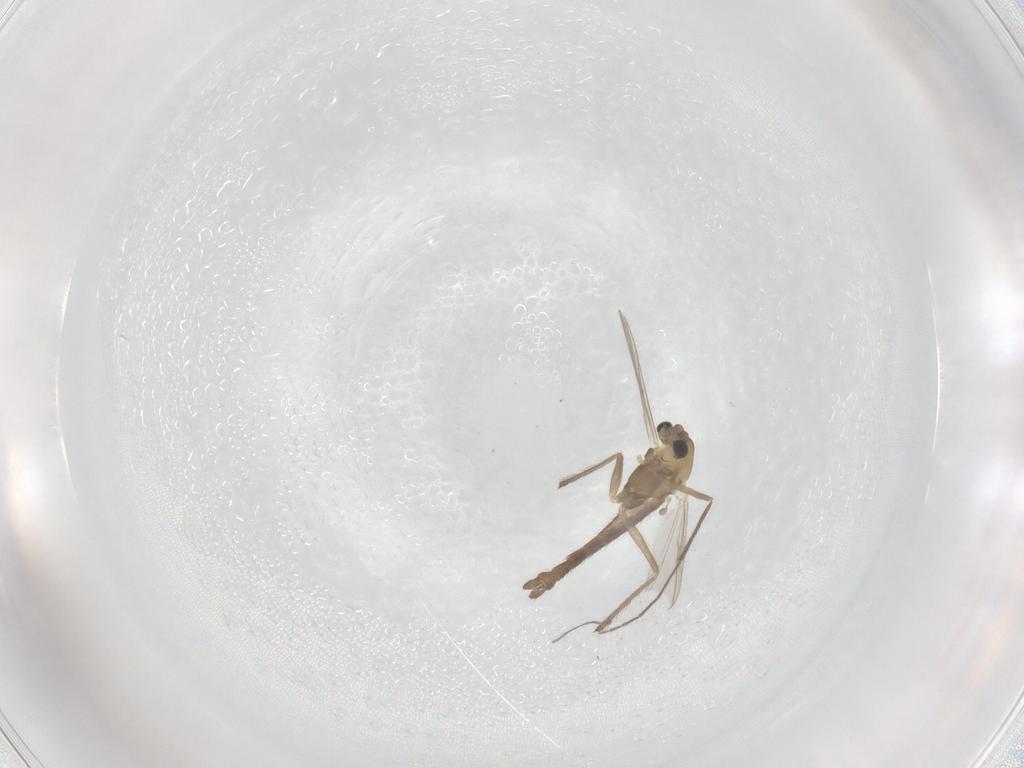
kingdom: Animalia
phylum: Arthropoda
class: Insecta
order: Diptera
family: Chironomidae
